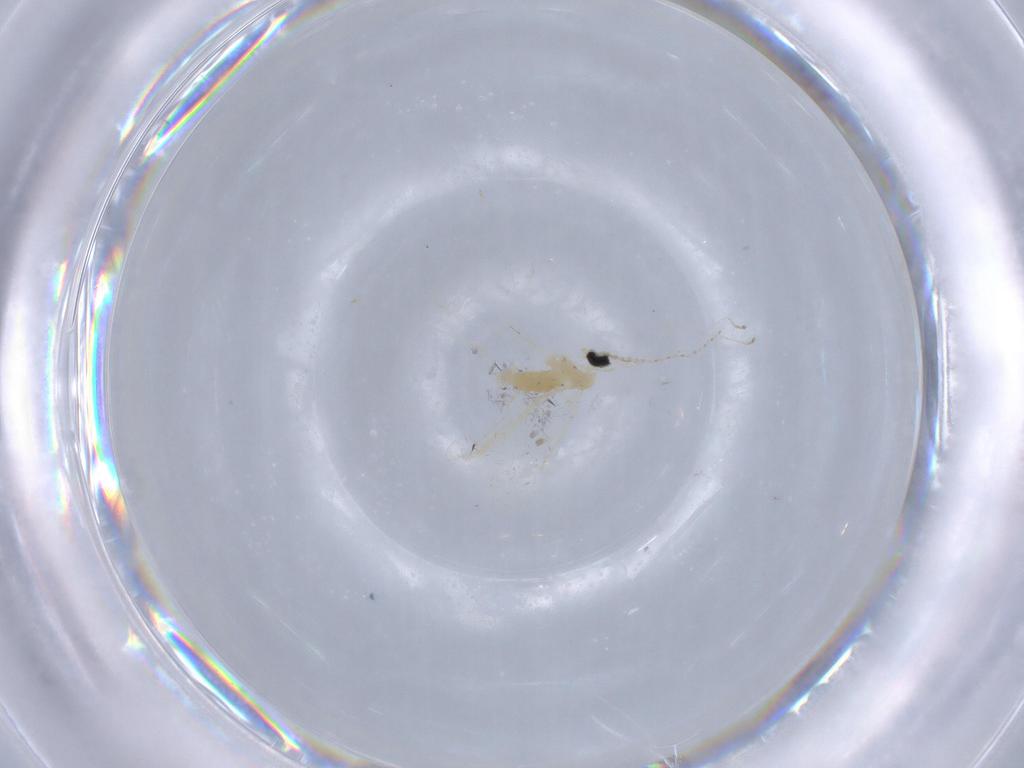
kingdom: Animalia
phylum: Arthropoda
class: Insecta
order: Diptera
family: Cecidomyiidae
